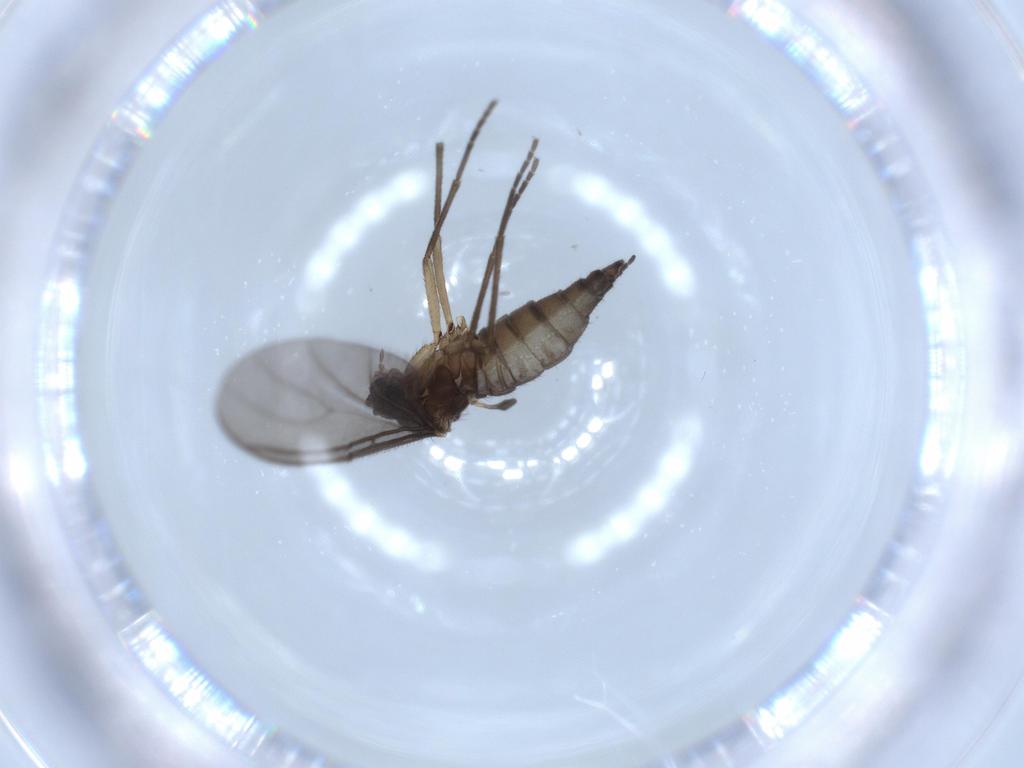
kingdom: Animalia
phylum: Arthropoda
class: Insecta
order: Diptera
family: Sciaridae
